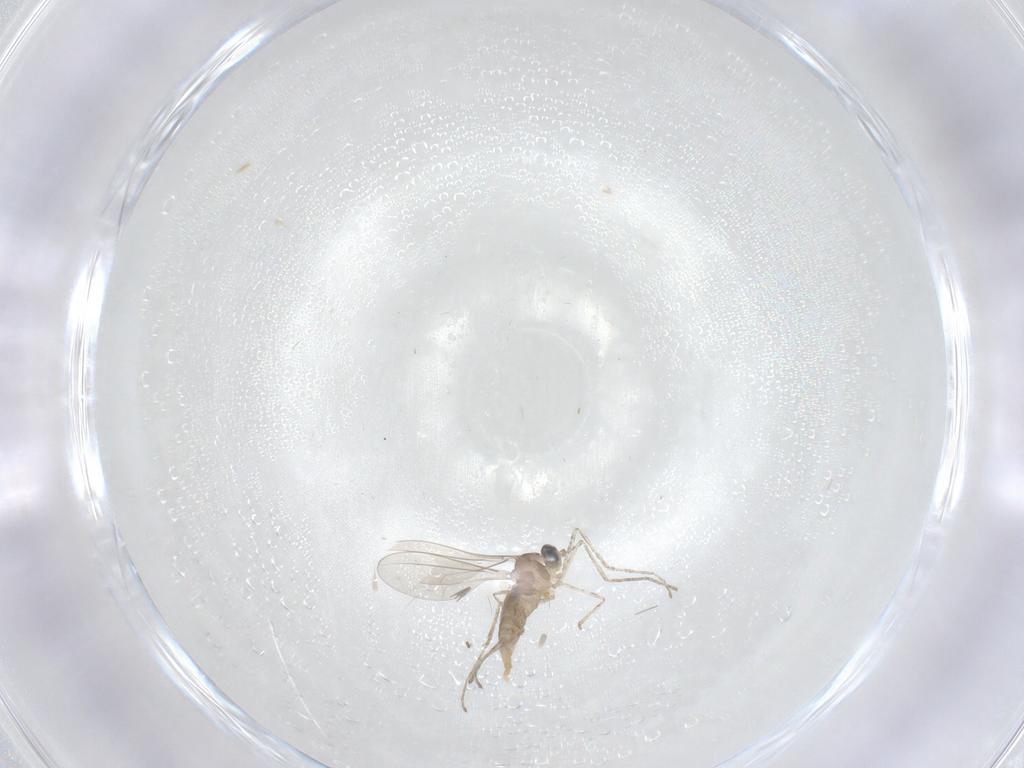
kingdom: Animalia
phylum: Arthropoda
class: Insecta
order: Diptera
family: Cecidomyiidae
